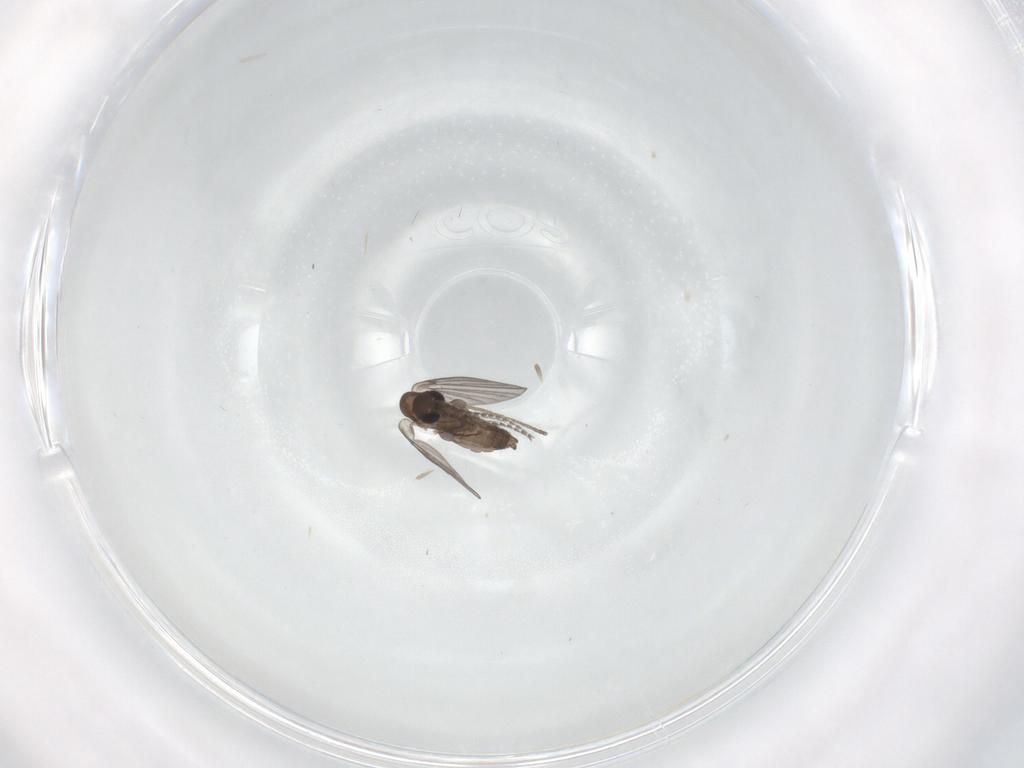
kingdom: Animalia
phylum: Arthropoda
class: Insecta
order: Diptera
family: Psychodidae
